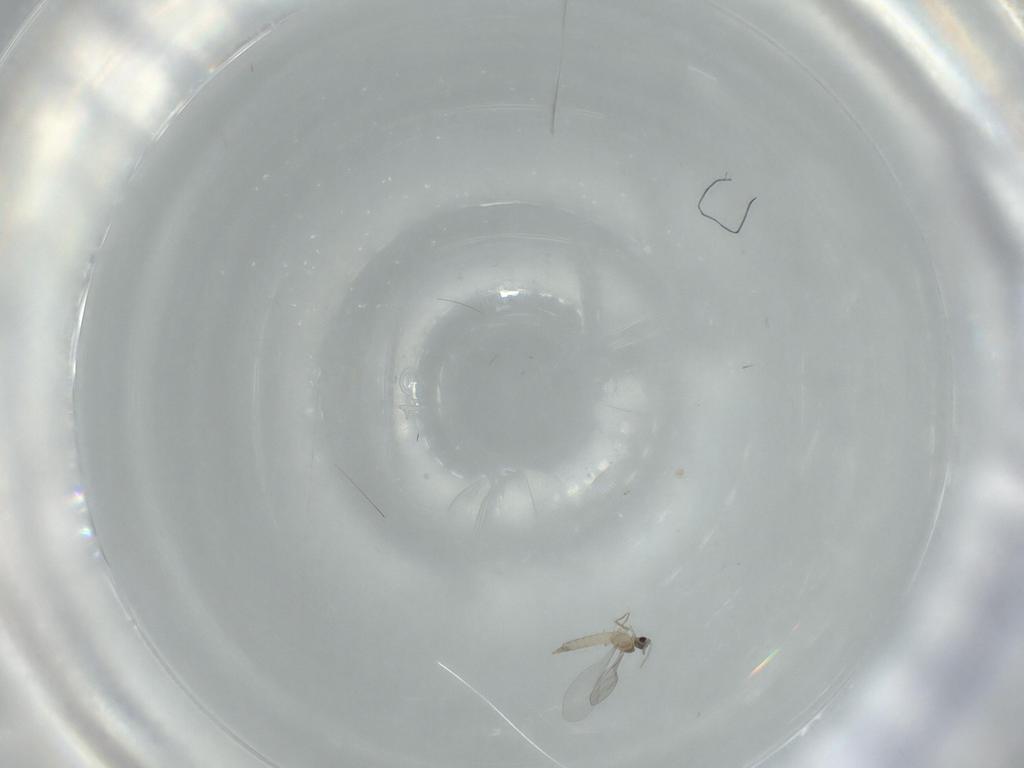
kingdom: Animalia
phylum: Arthropoda
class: Insecta
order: Diptera
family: Cecidomyiidae
